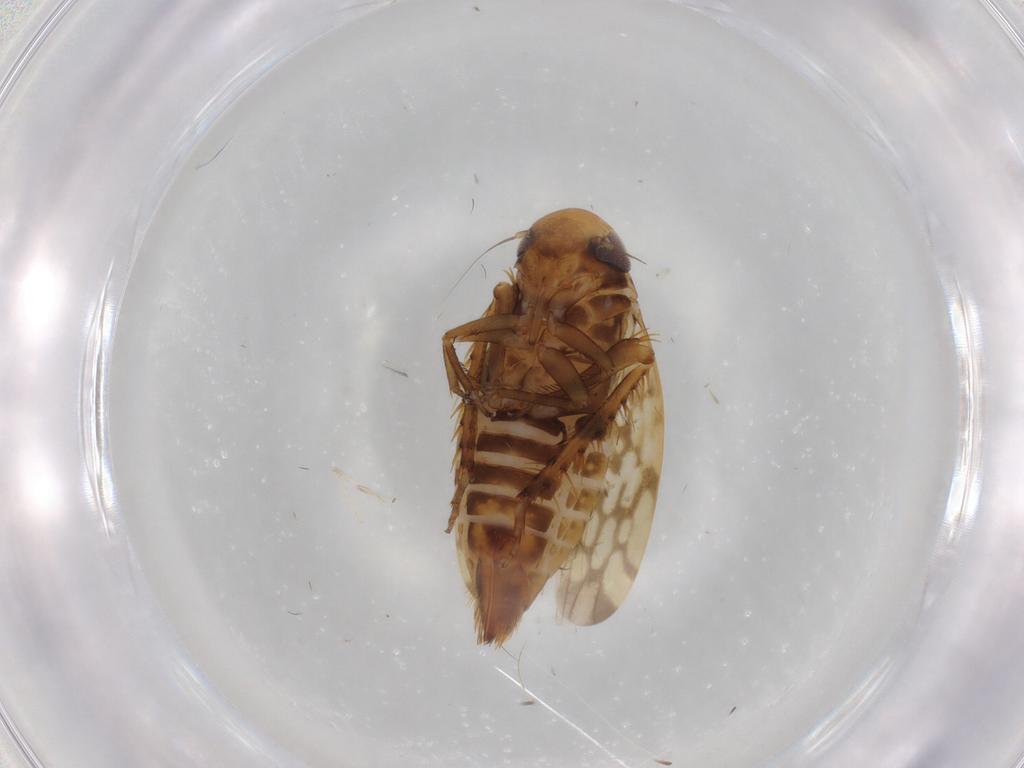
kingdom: Animalia
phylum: Arthropoda
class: Insecta
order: Hemiptera
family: Cicadellidae
